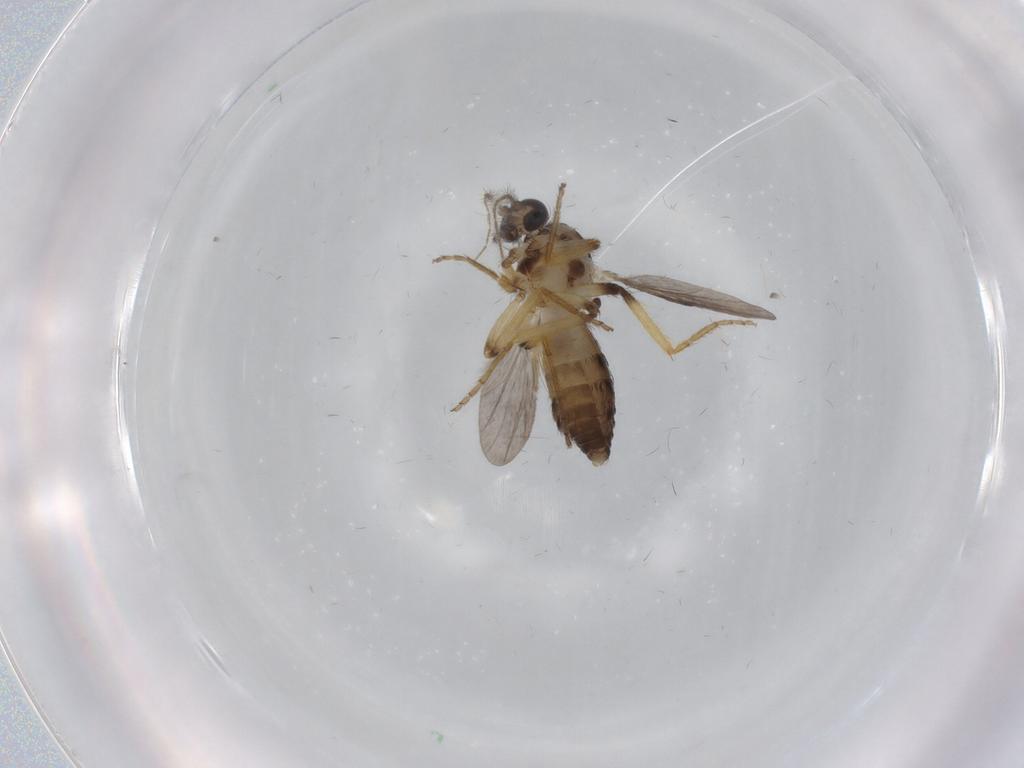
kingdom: Animalia
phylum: Arthropoda
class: Insecta
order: Diptera
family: Ceratopogonidae
